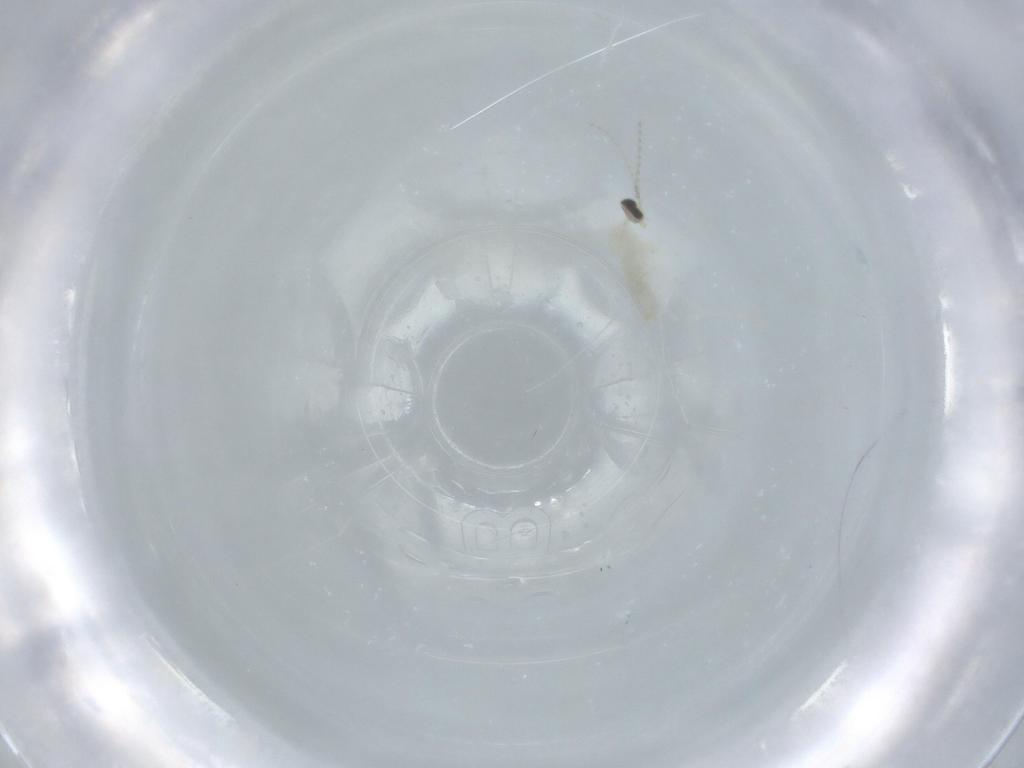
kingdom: Animalia
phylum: Arthropoda
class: Insecta
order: Diptera
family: Cecidomyiidae
